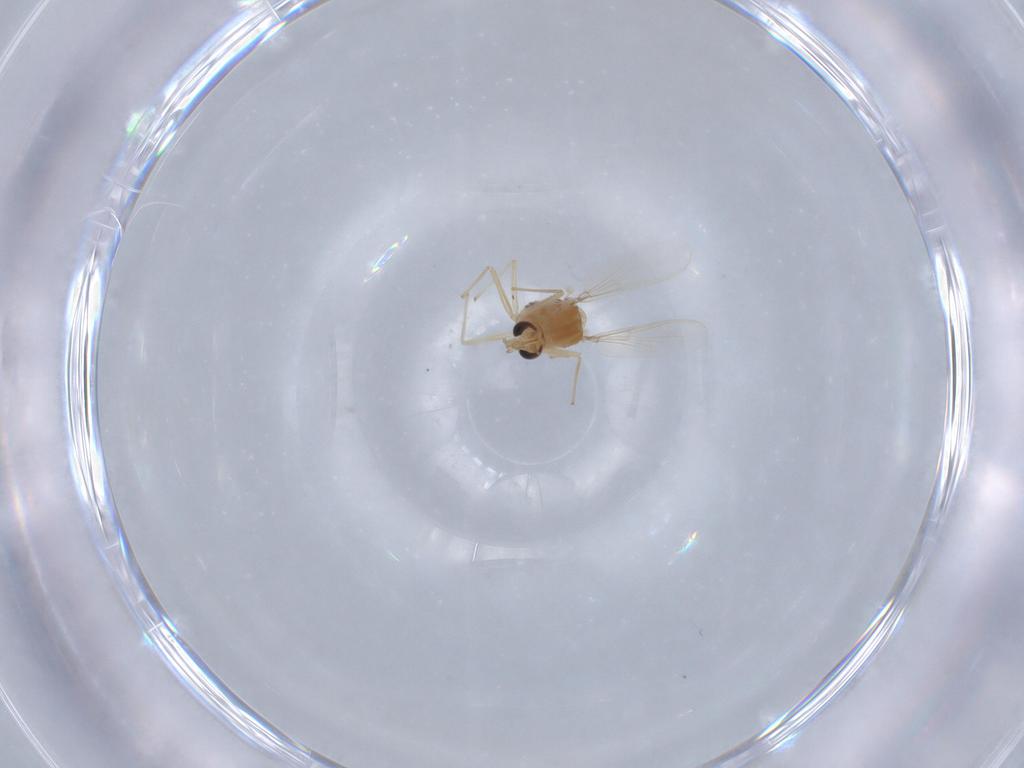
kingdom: Animalia
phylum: Arthropoda
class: Insecta
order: Diptera
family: Chironomidae
